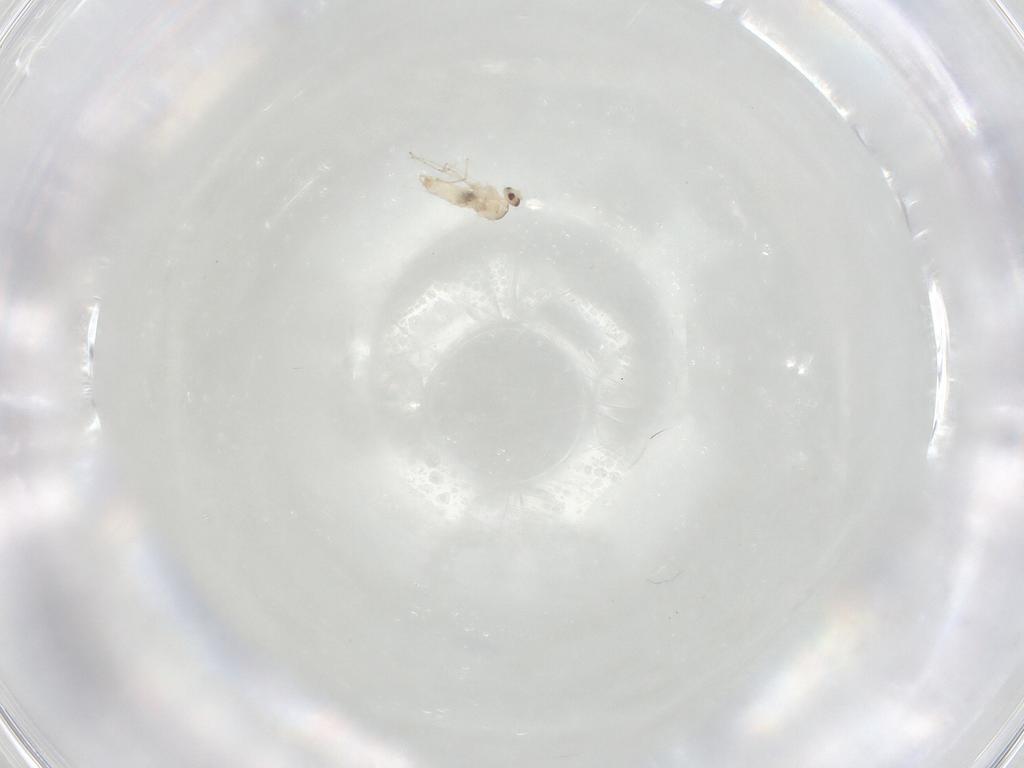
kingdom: Animalia
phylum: Arthropoda
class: Insecta
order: Diptera
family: Cecidomyiidae
